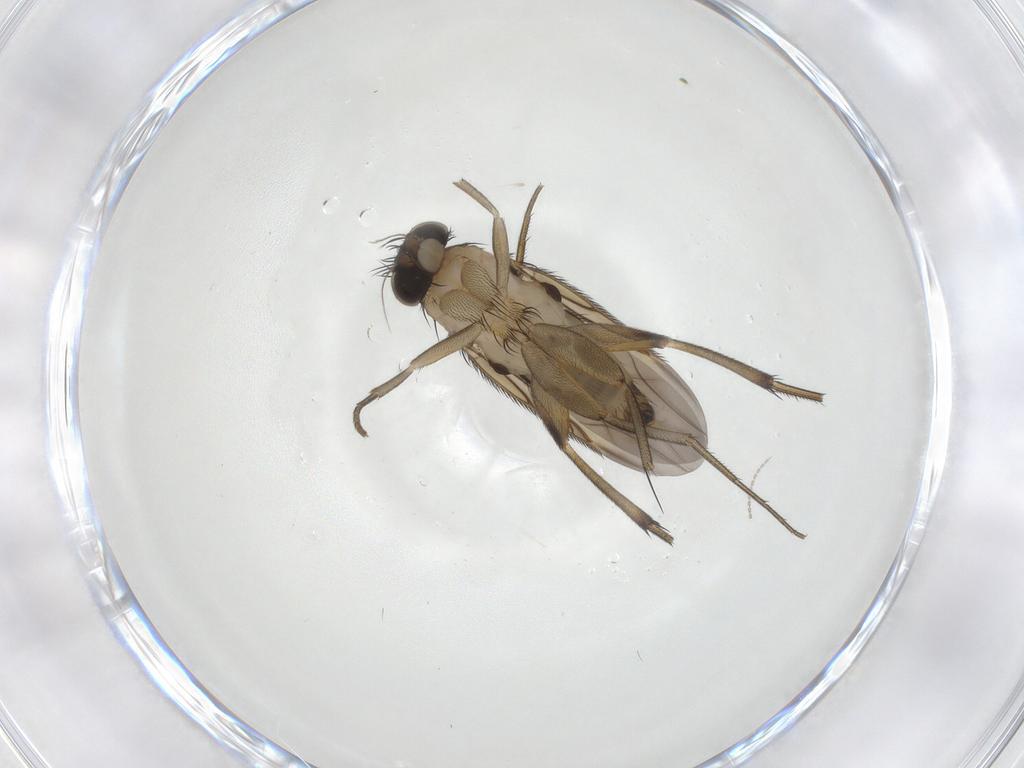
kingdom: Animalia
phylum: Arthropoda
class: Insecta
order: Diptera
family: Phoridae
